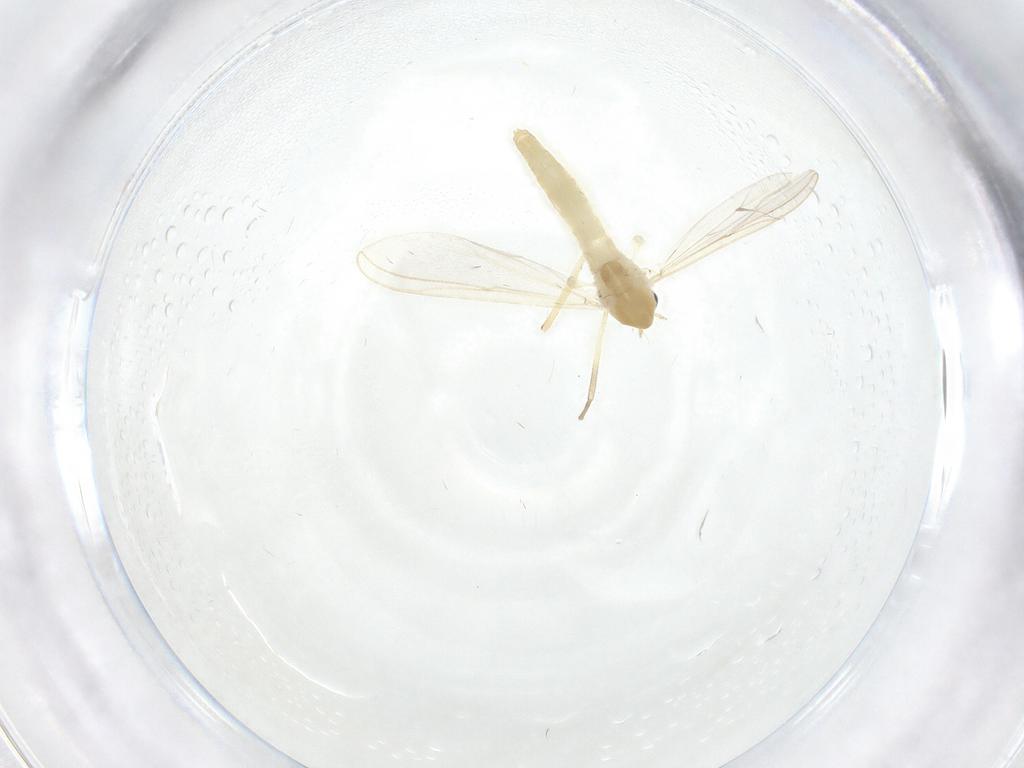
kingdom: Animalia
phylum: Arthropoda
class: Insecta
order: Diptera
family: Chironomidae
